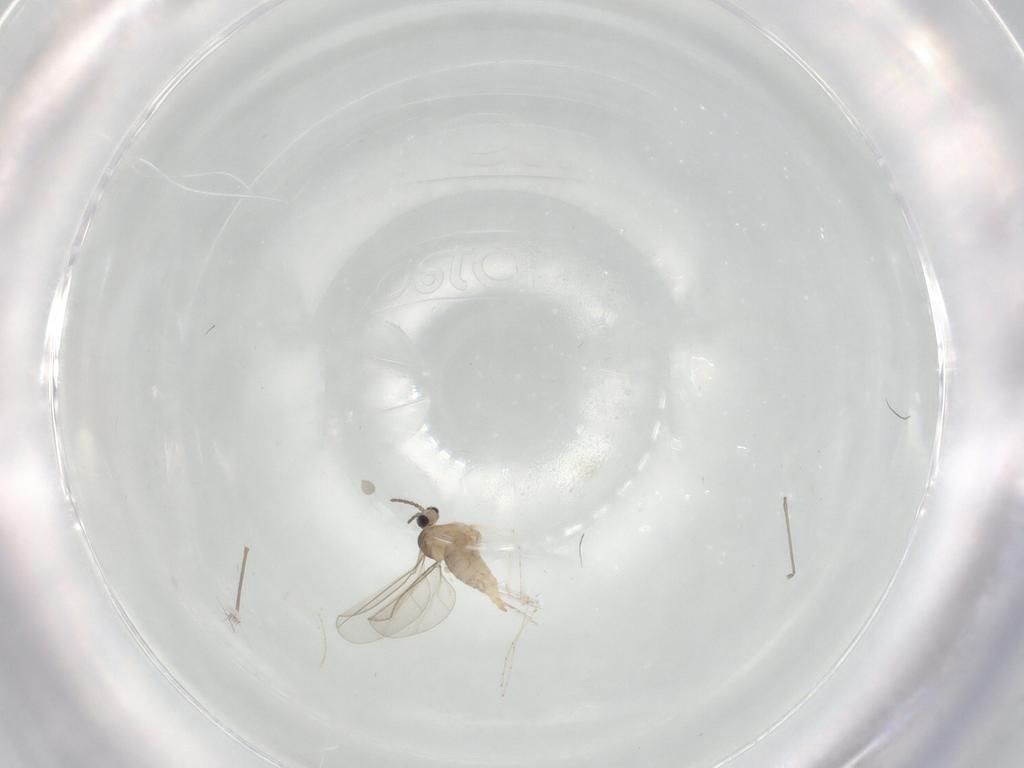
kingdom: Animalia
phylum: Arthropoda
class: Insecta
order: Diptera
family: Cecidomyiidae
